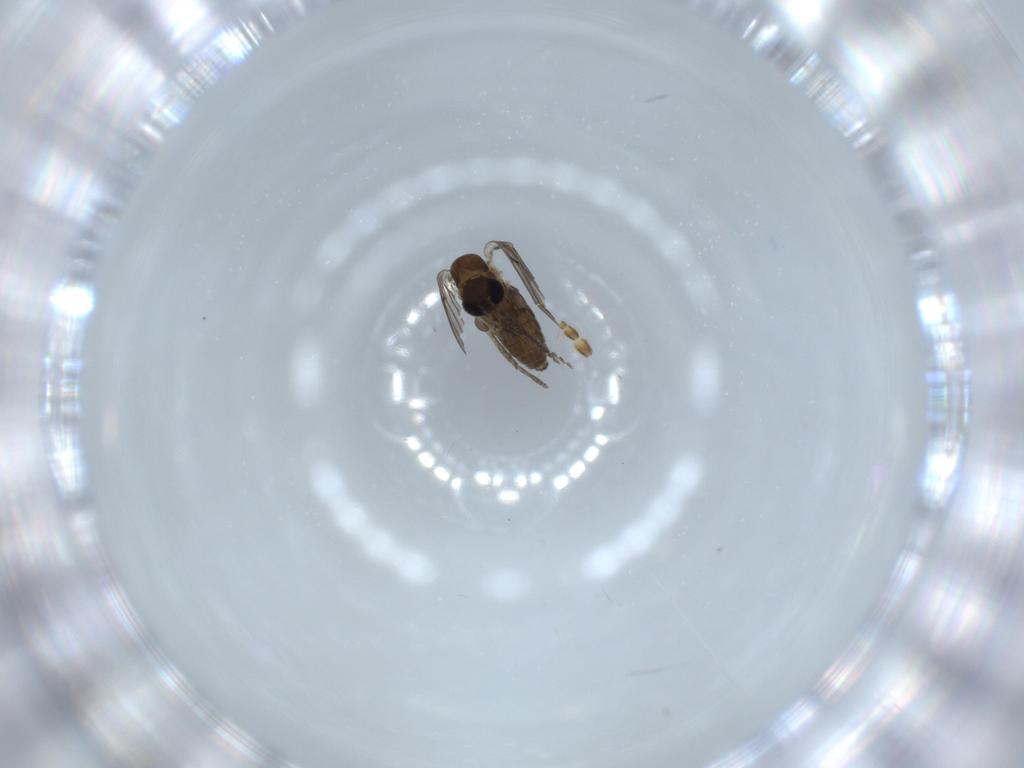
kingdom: Animalia
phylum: Arthropoda
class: Insecta
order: Diptera
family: Psychodidae
